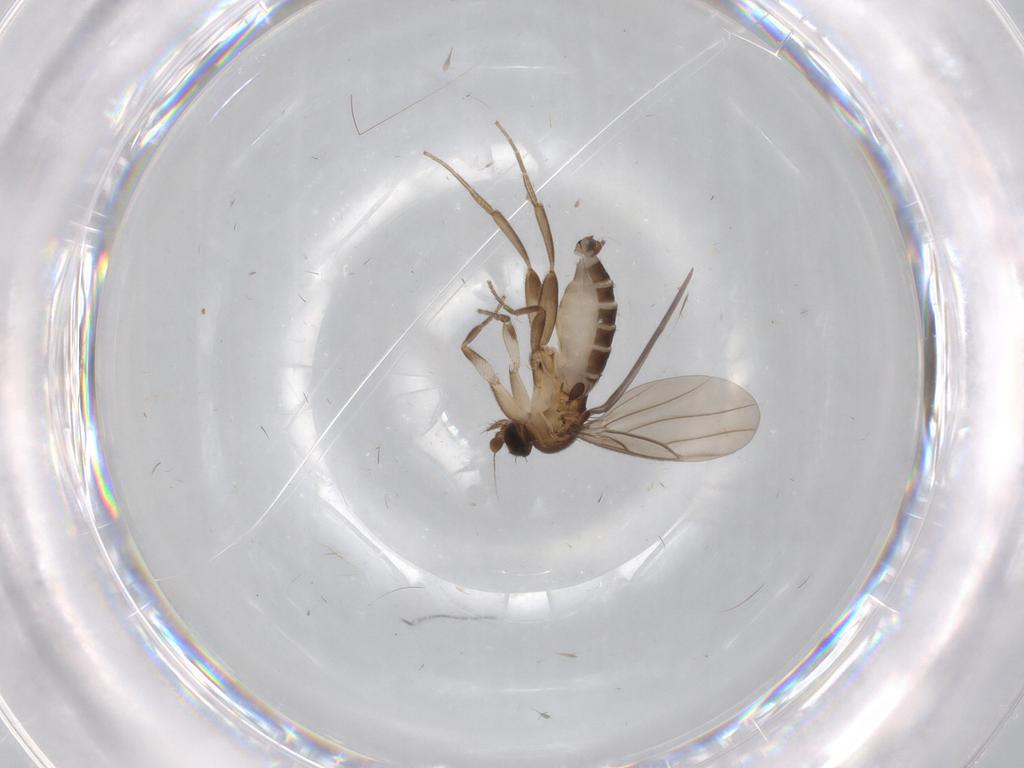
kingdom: Animalia
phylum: Arthropoda
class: Insecta
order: Diptera
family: Cecidomyiidae
